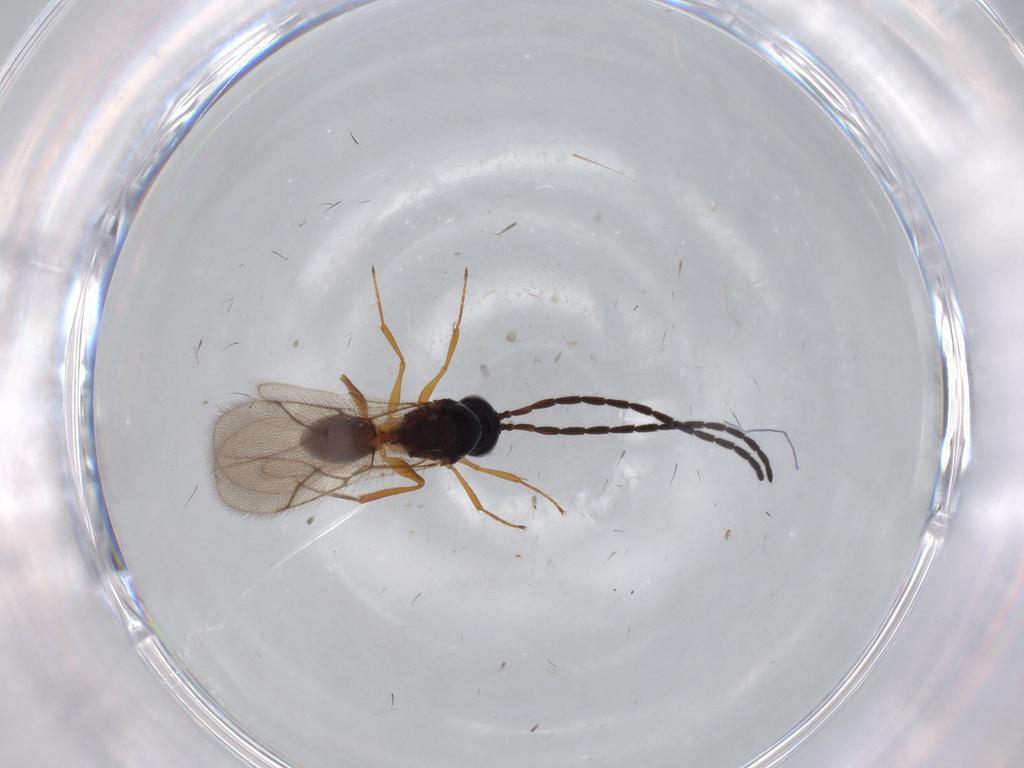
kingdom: Animalia
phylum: Arthropoda
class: Insecta
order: Hymenoptera
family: Figitidae
